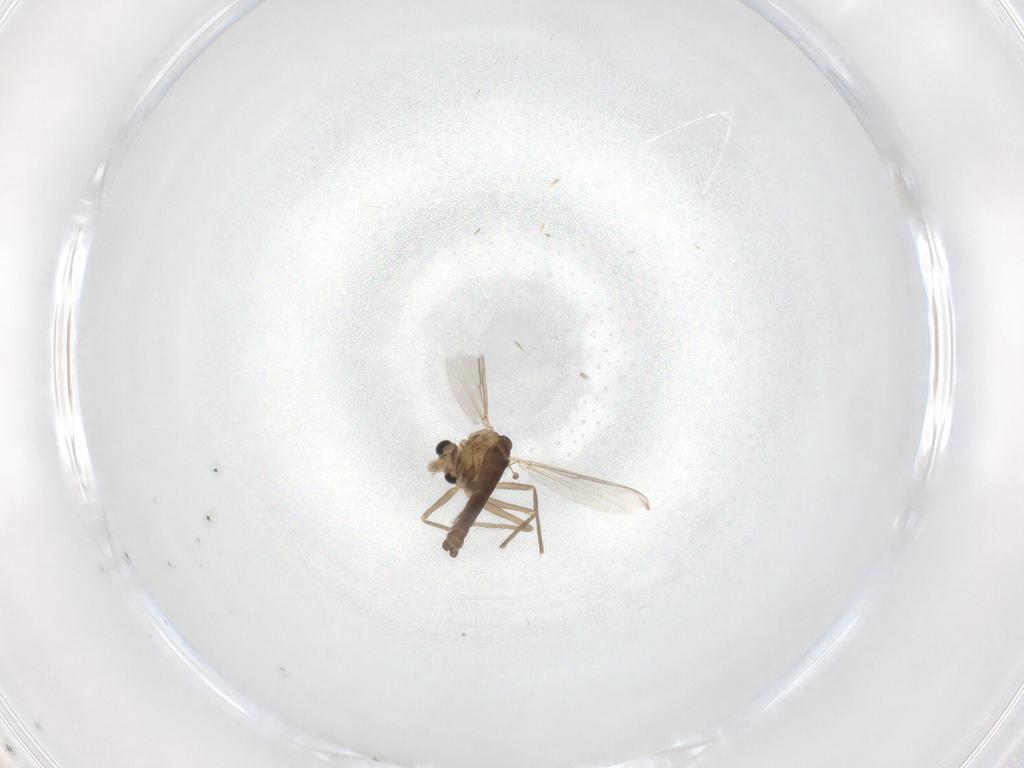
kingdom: Animalia
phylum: Arthropoda
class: Insecta
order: Diptera
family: Chironomidae
